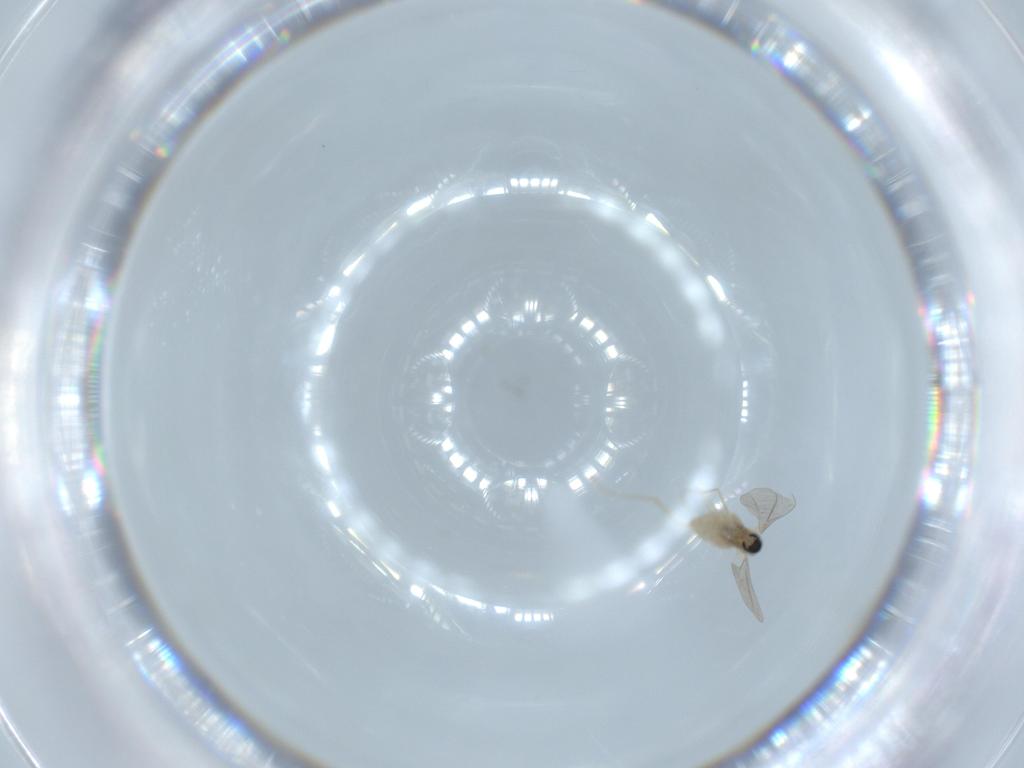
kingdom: Animalia
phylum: Arthropoda
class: Insecta
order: Diptera
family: Cecidomyiidae
